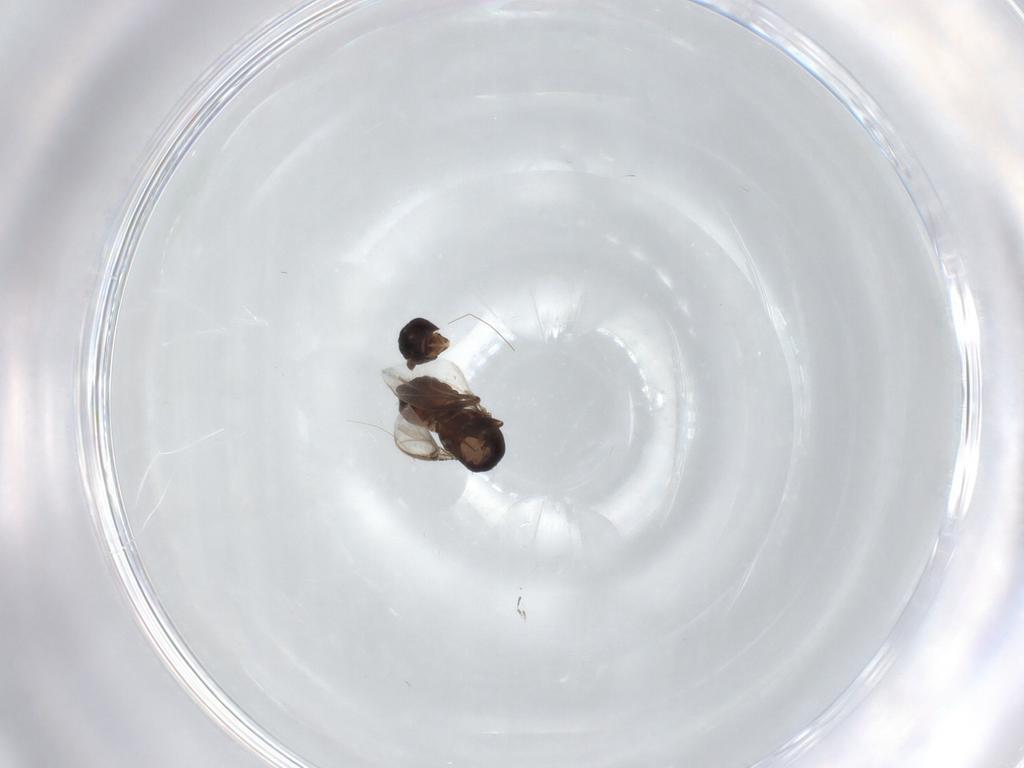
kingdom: Animalia
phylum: Arthropoda
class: Insecta
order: Diptera
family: Sphaeroceridae
